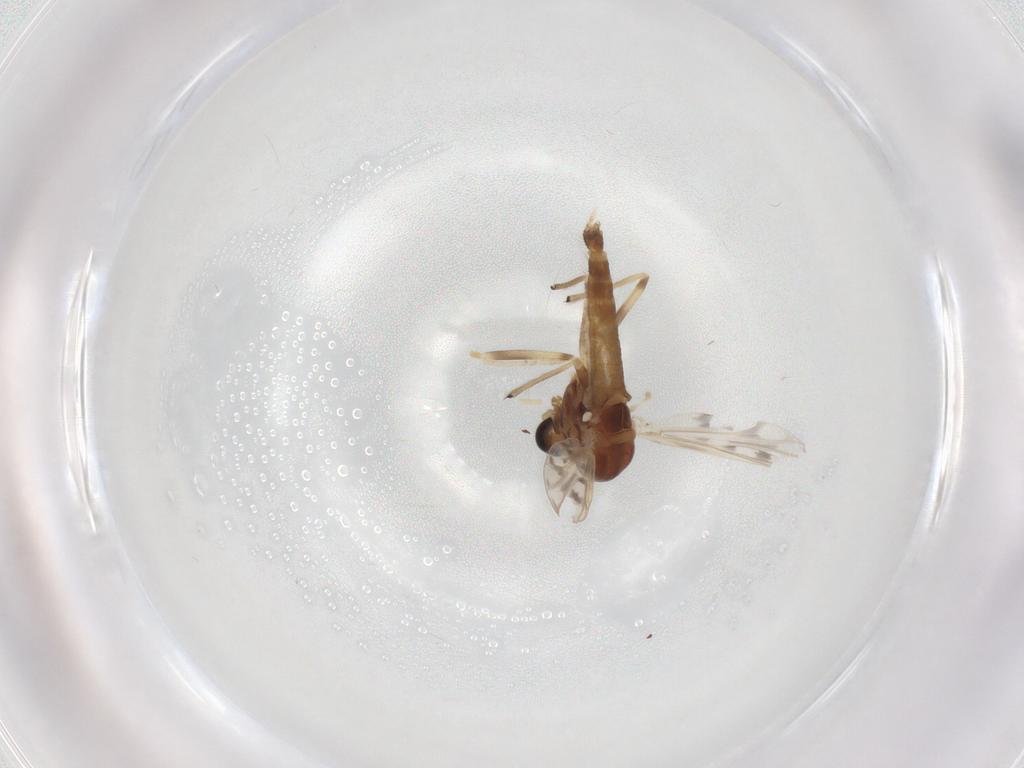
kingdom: Animalia
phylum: Arthropoda
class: Insecta
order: Diptera
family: Chironomidae
